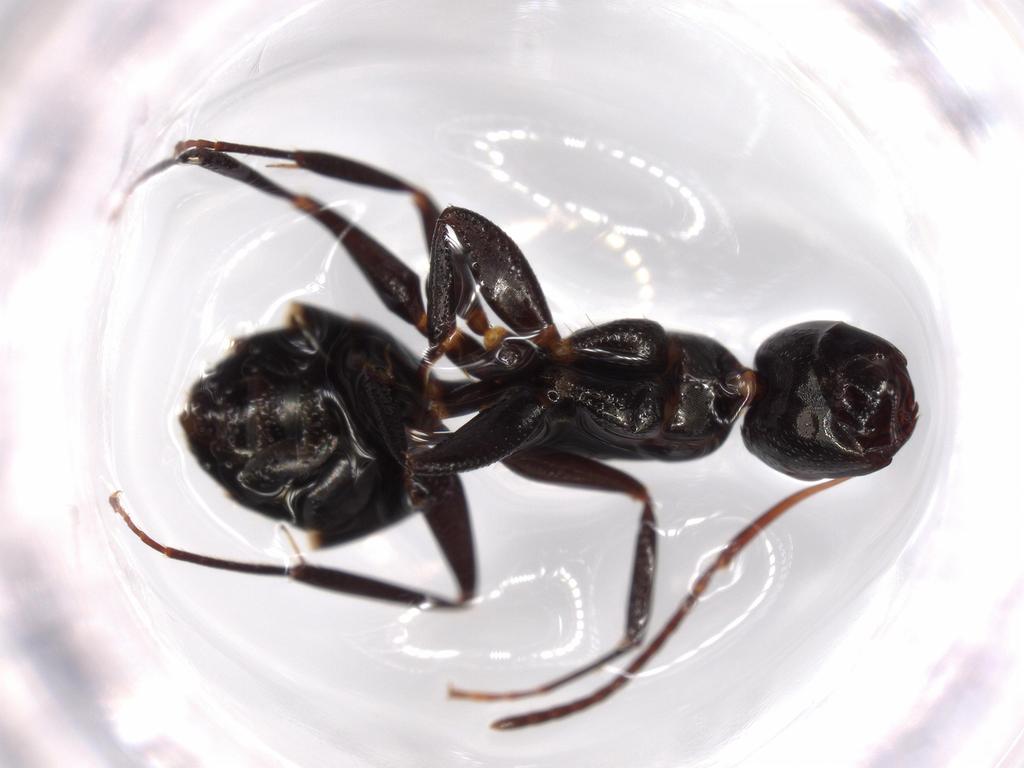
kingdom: Animalia
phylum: Arthropoda
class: Insecta
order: Hymenoptera
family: Formicidae
